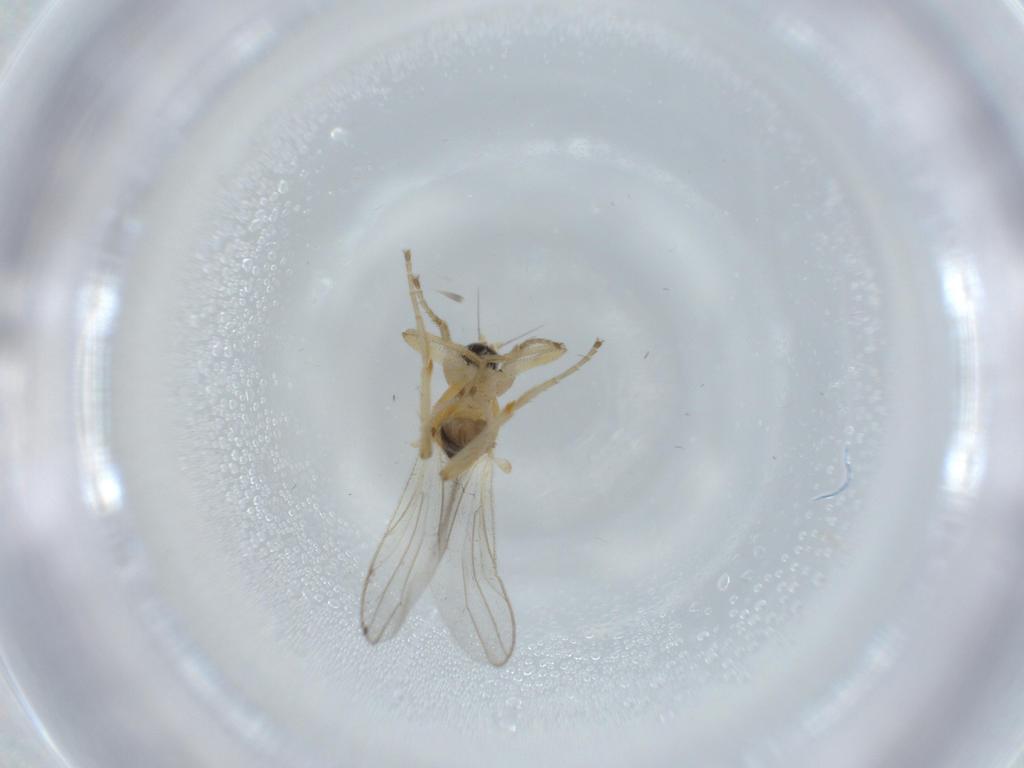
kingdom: Animalia
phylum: Arthropoda
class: Insecta
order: Diptera
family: Hybotidae
